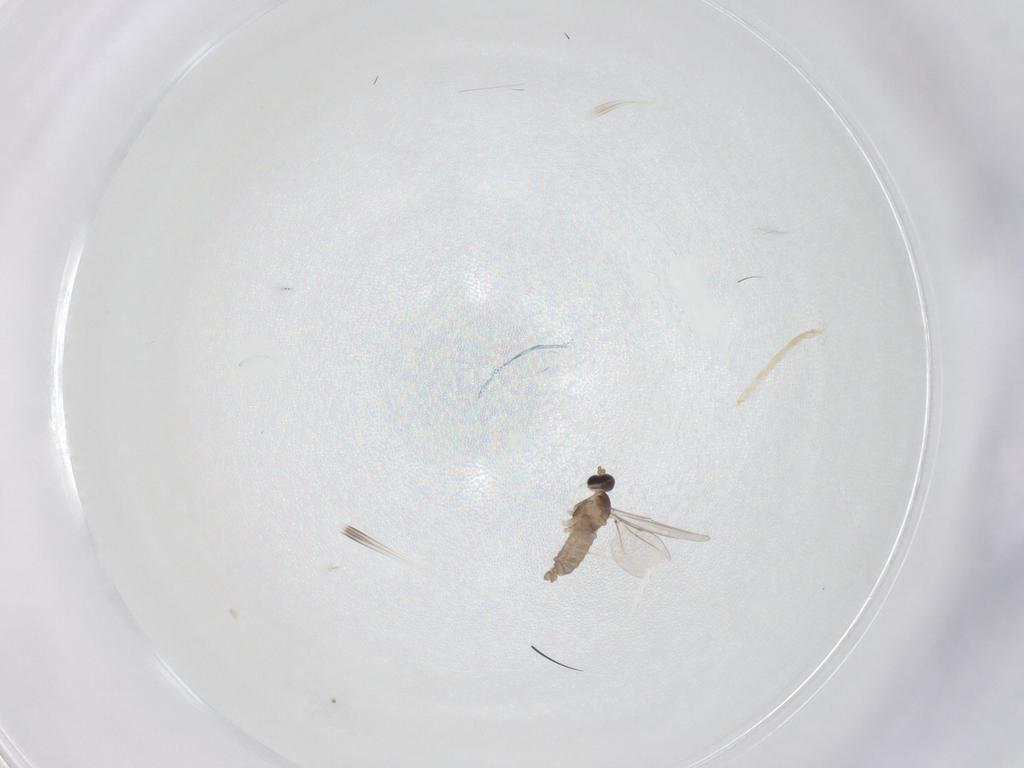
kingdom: Animalia
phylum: Arthropoda
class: Insecta
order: Diptera
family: Cecidomyiidae
